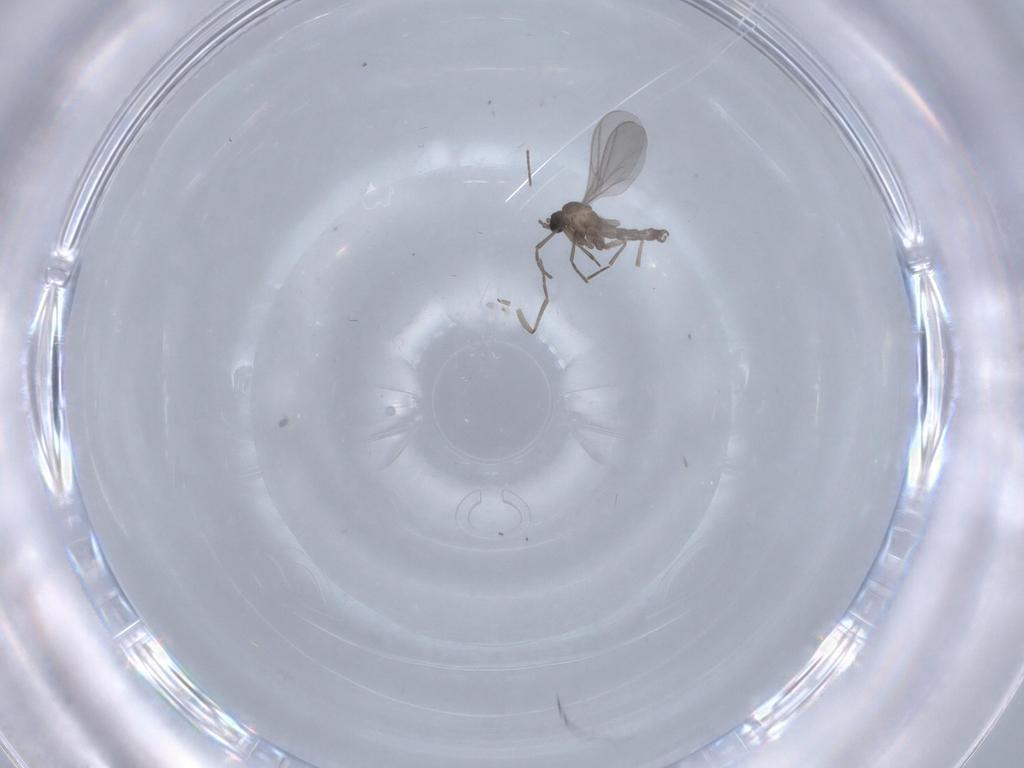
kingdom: Animalia
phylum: Arthropoda
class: Insecta
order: Diptera
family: Sciaridae
